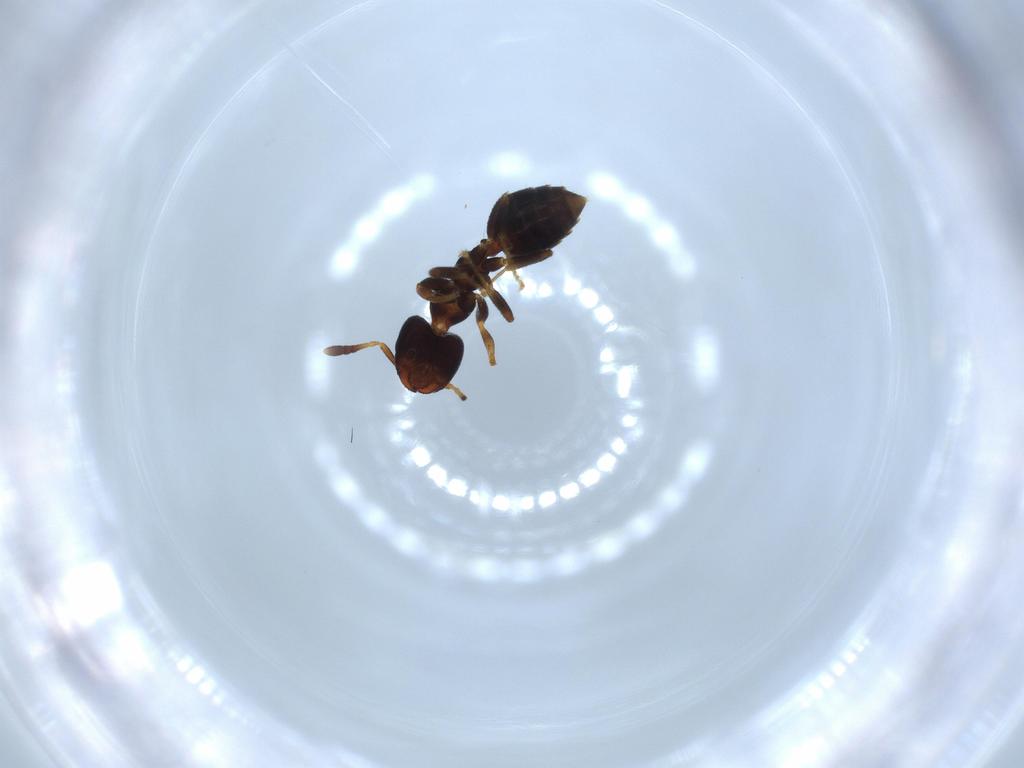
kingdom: Animalia
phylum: Arthropoda
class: Insecta
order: Hymenoptera
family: Formicidae
